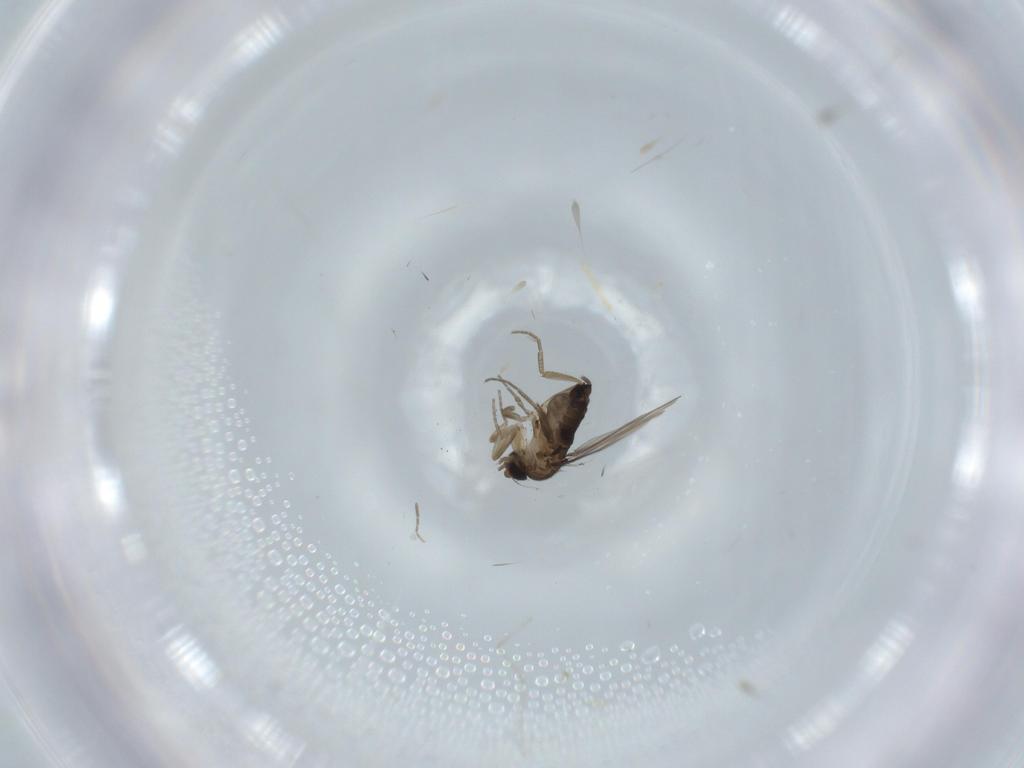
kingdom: Animalia
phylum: Arthropoda
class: Insecta
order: Diptera
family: Phoridae
